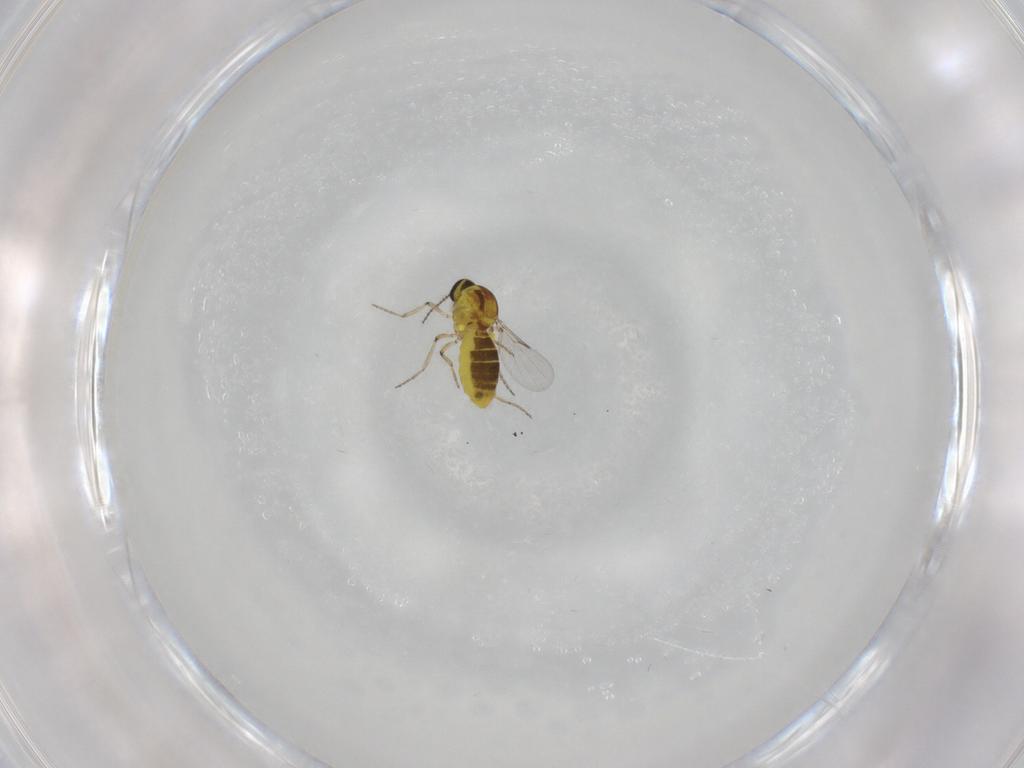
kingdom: Animalia
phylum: Arthropoda
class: Insecta
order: Diptera
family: Ceratopogonidae
